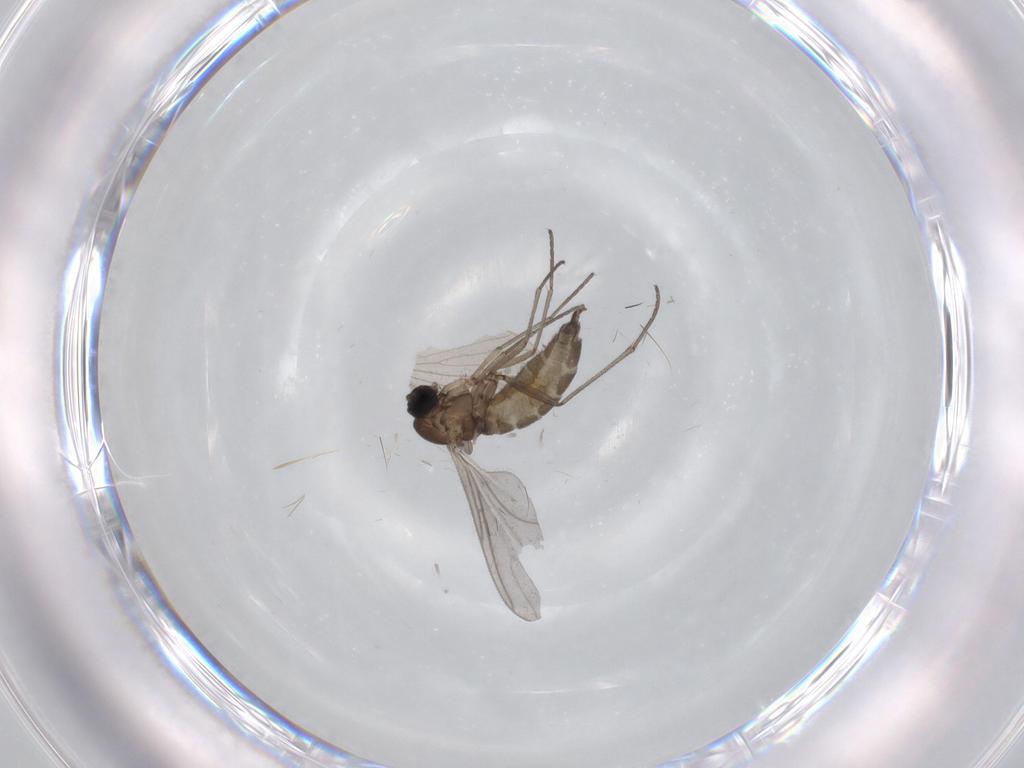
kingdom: Animalia
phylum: Arthropoda
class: Insecta
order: Diptera
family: Sciaridae
